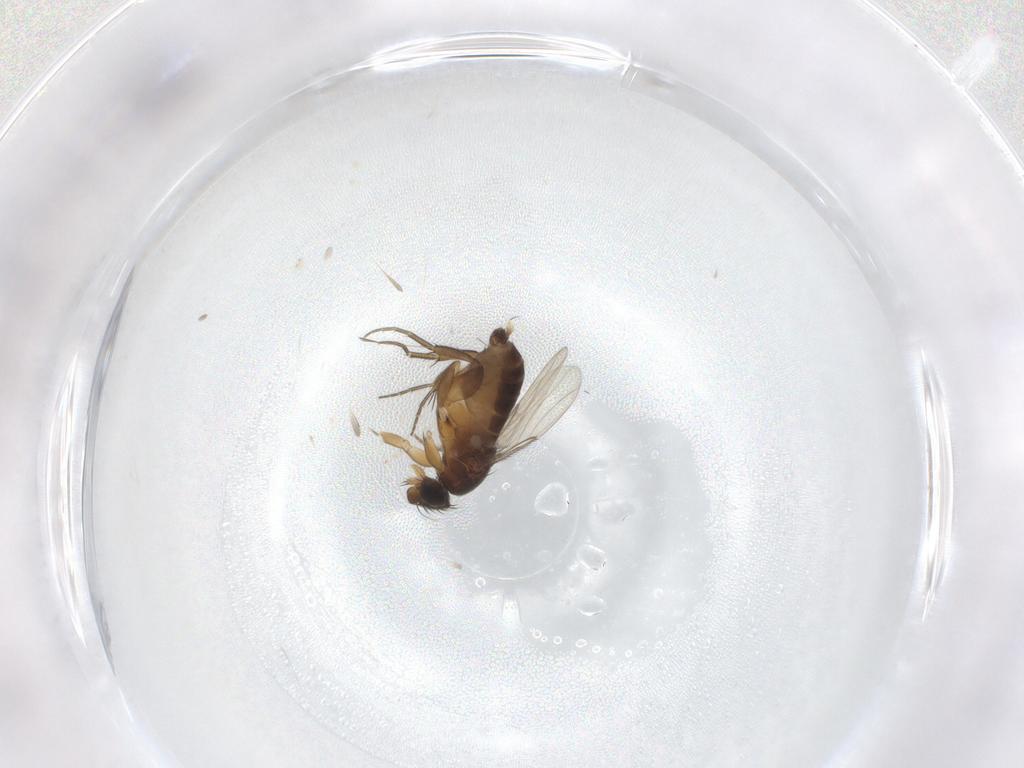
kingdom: Animalia
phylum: Arthropoda
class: Insecta
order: Diptera
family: Phoridae
